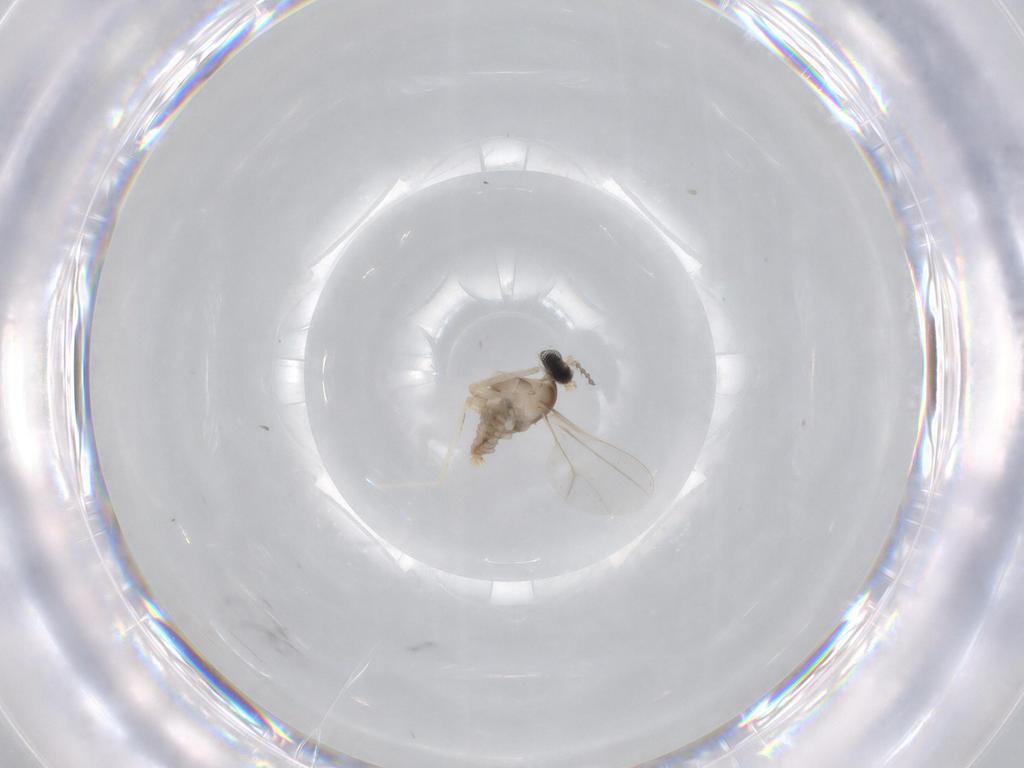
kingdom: Animalia
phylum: Arthropoda
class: Insecta
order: Diptera
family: Cecidomyiidae
